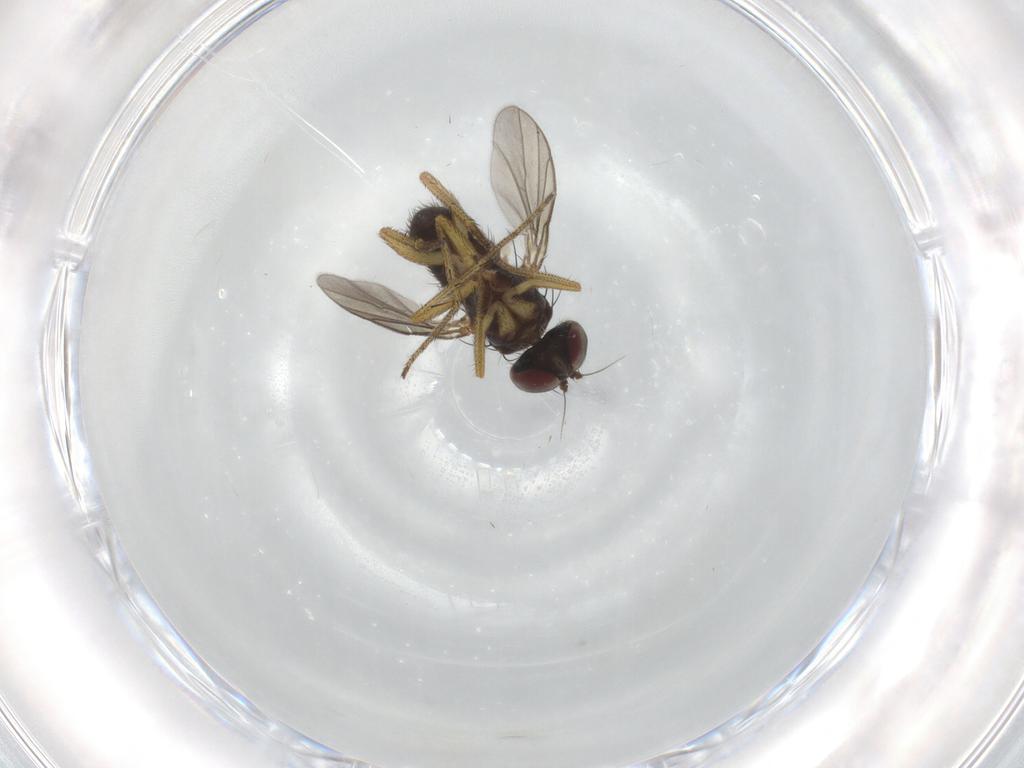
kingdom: Animalia
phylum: Arthropoda
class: Insecta
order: Diptera
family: Dolichopodidae
